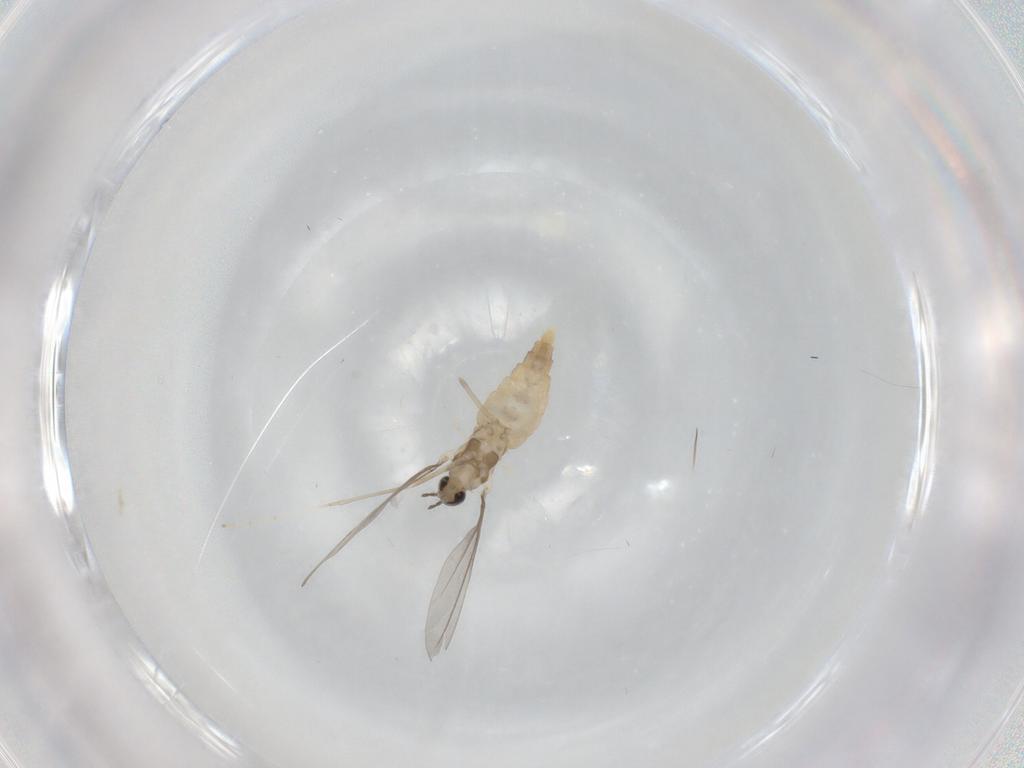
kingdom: Animalia
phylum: Arthropoda
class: Insecta
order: Diptera
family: Cecidomyiidae
